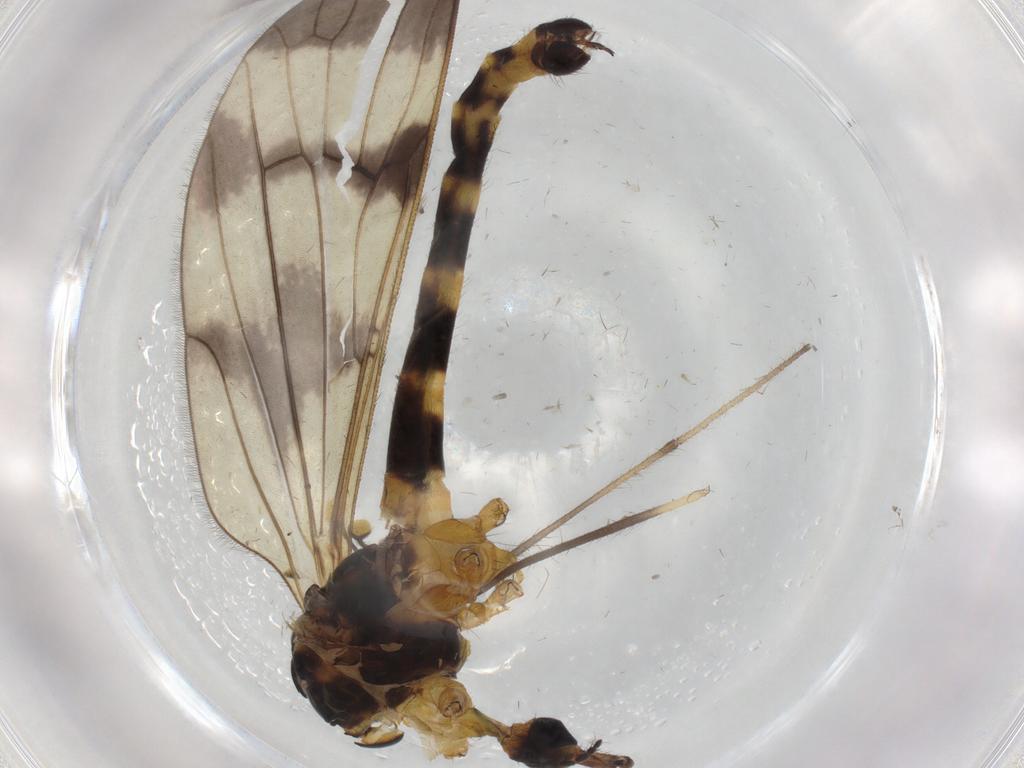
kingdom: Animalia
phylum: Arthropoda
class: Insecta
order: Diptera
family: Limoniidae
